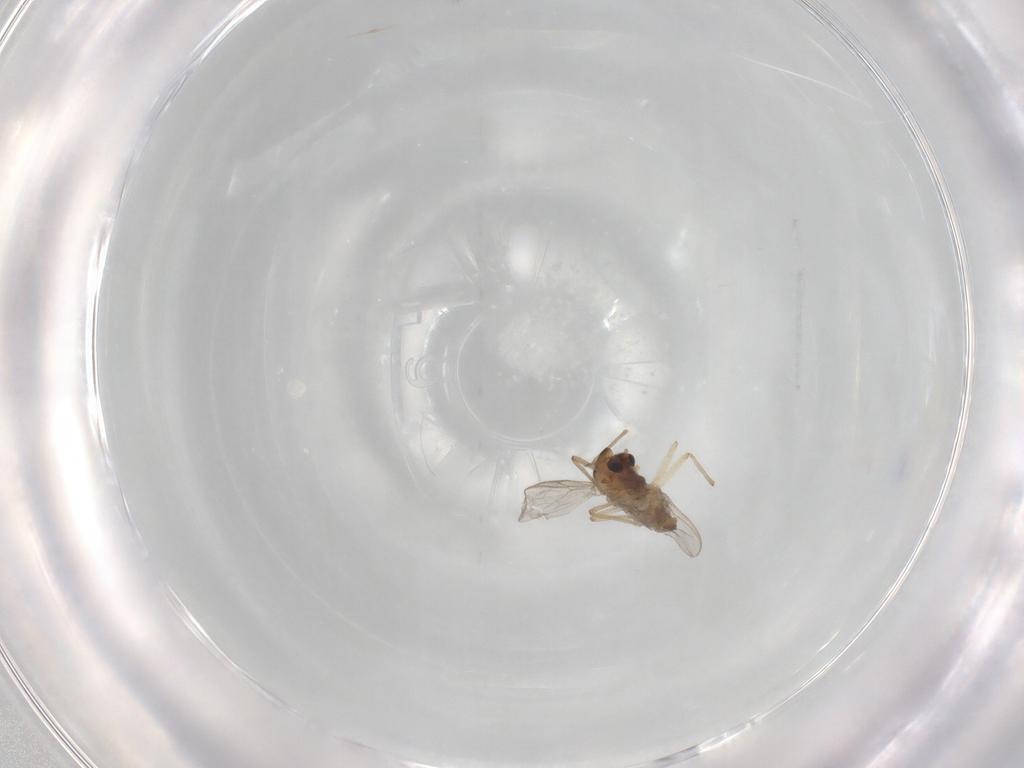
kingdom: Animalia
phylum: Arthropoda
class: Insecta
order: Diptera
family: Chironomidae
